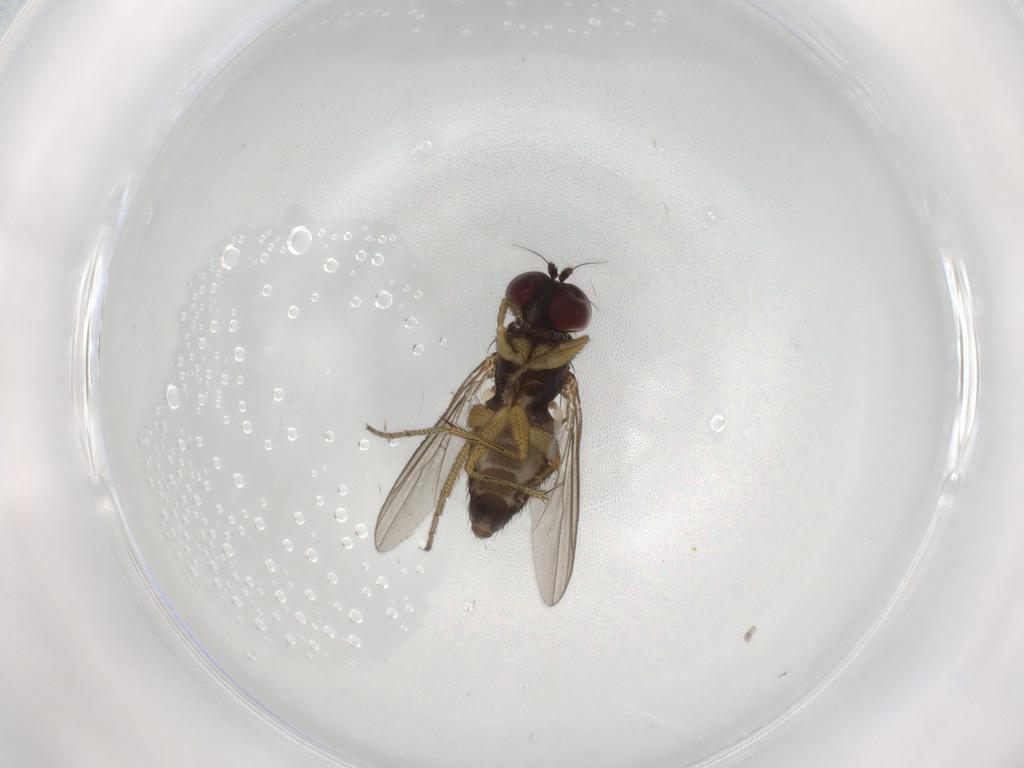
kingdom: Animalia
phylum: Arthropoda
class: Insecta
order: Diptera
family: Dolichopodidae
